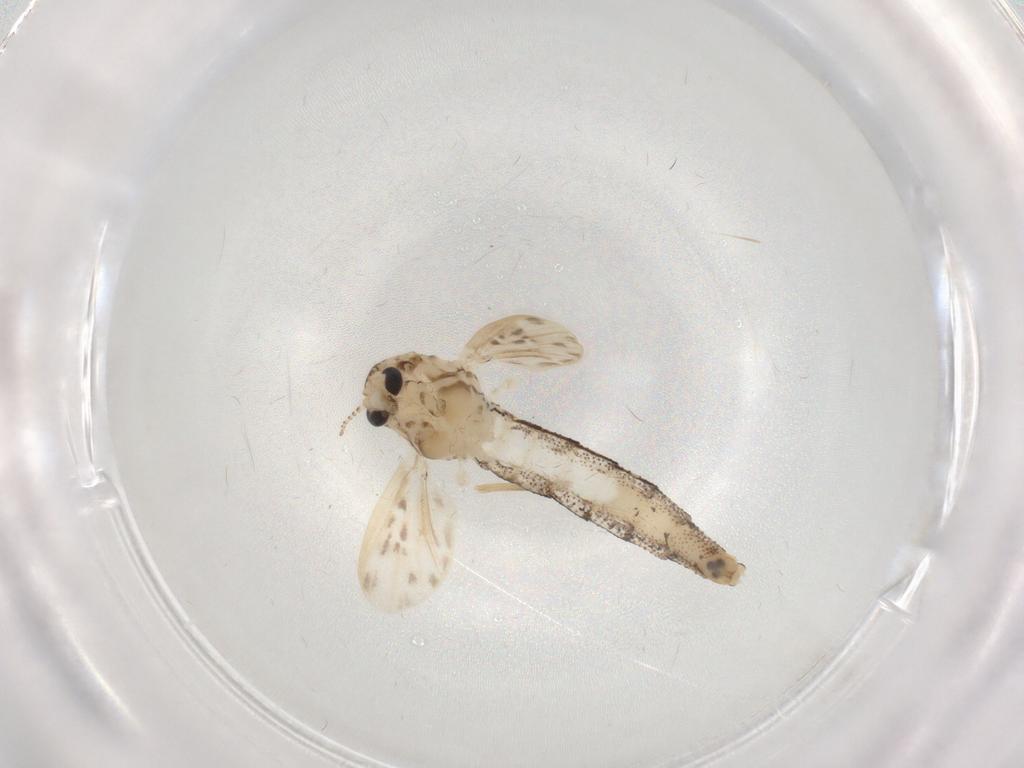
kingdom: Animalia
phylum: Arthropoda
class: Insecta
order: Diptera
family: Chaoboridae
